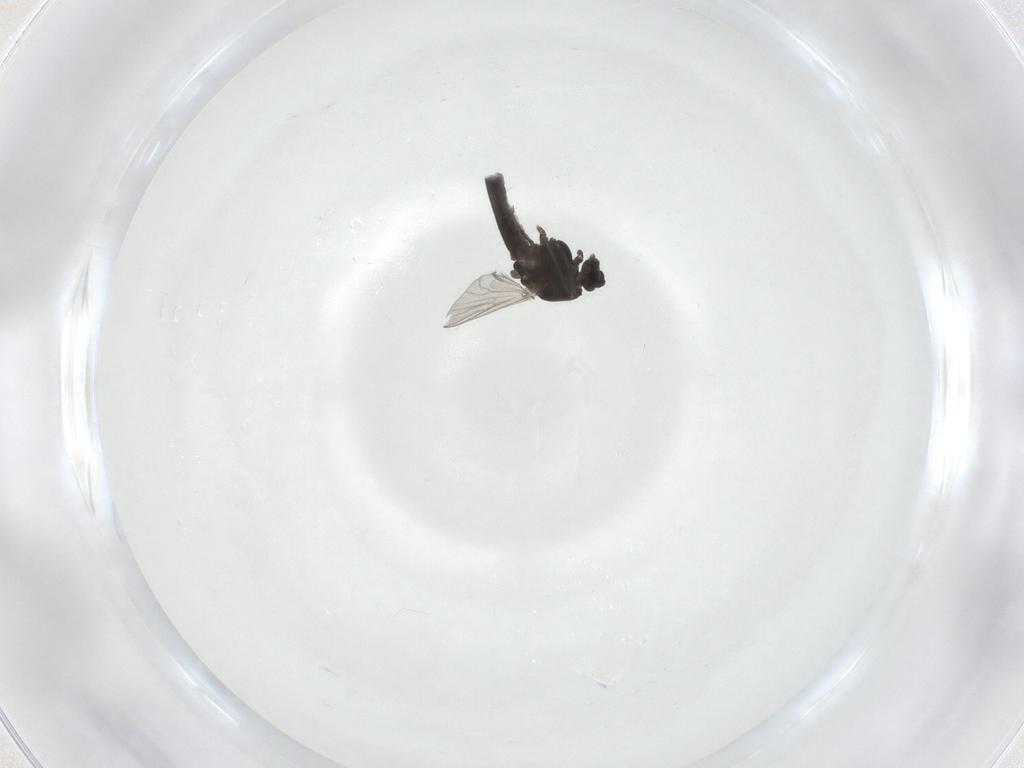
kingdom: Animalia
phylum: Arthropoda
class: Insecta
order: Diptera
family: Chironomidae
